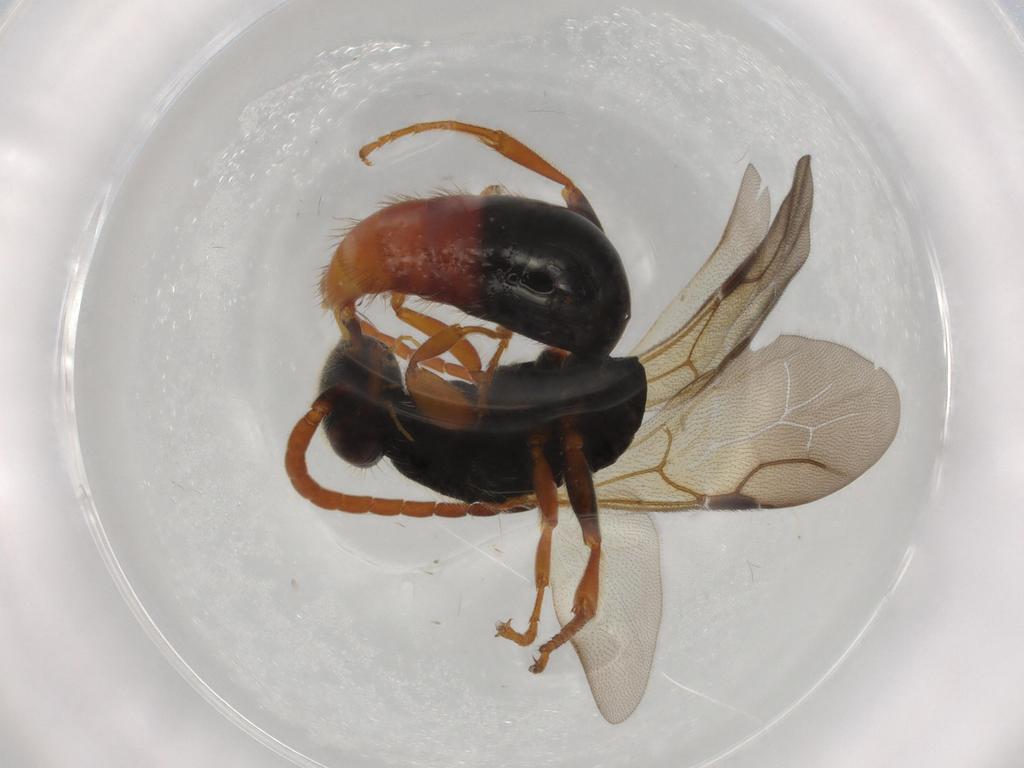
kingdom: Animalia
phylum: Arthropoda
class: Insecta
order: Hymenoptera
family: Bethylidae
